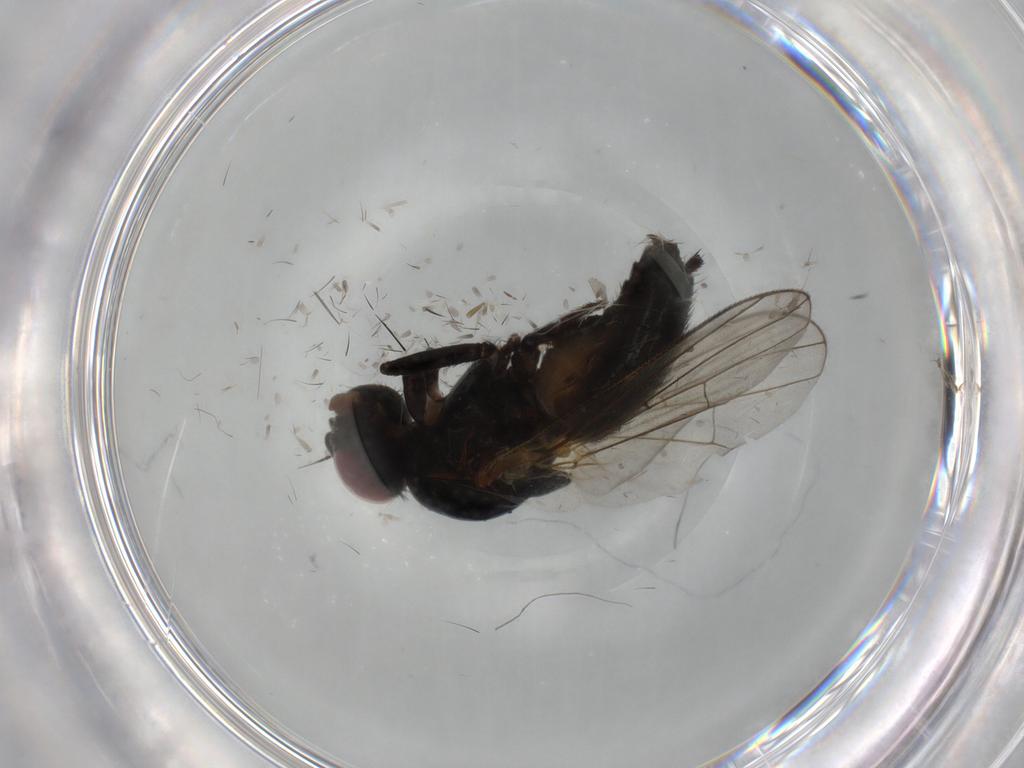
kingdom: Animalia
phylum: Arthropoda
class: Insecta
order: Diptera
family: Fannia
